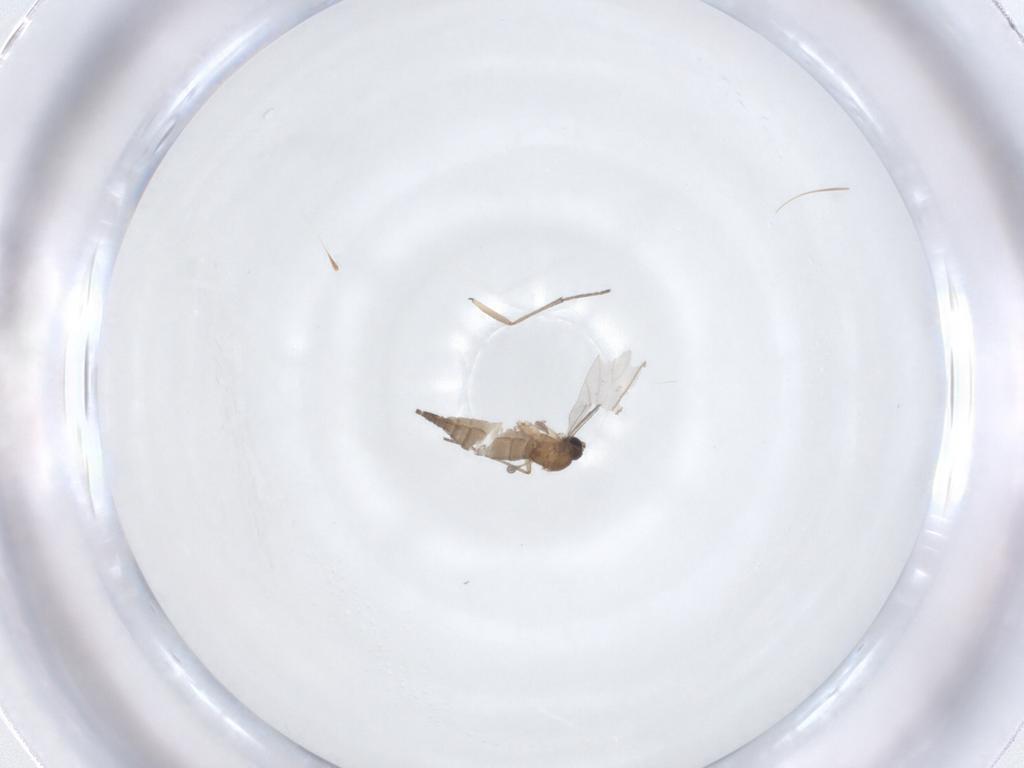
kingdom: Animalia
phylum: Arthropoda
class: Insecta
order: Diptera
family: Sciaridae
